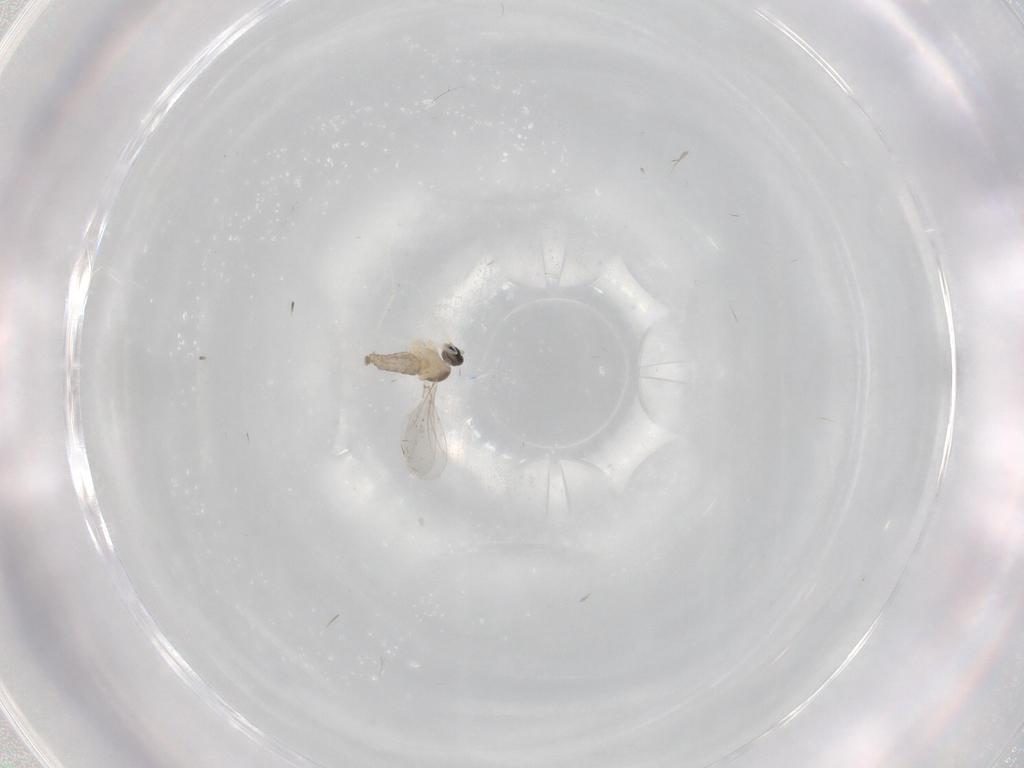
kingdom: Animalia
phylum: Arthropoda
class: Insecta
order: Diptera
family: Cecidomyiidae
